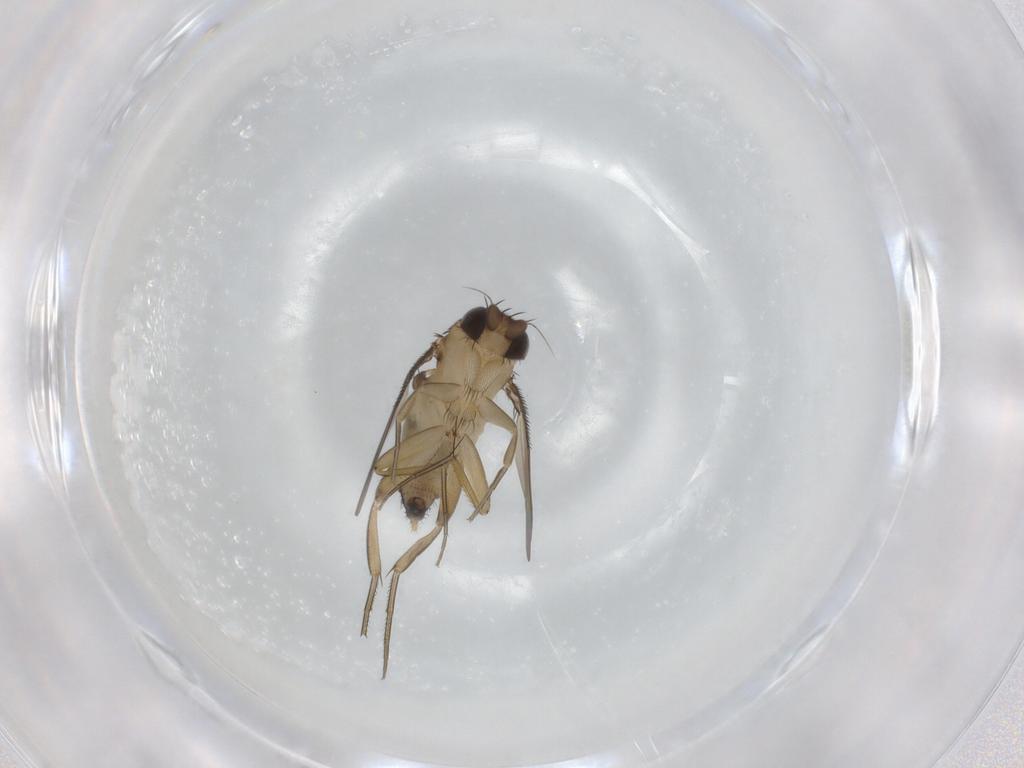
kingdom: Animalia
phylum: Arthropoda
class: Insecta
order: Diptera
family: Phoridae
